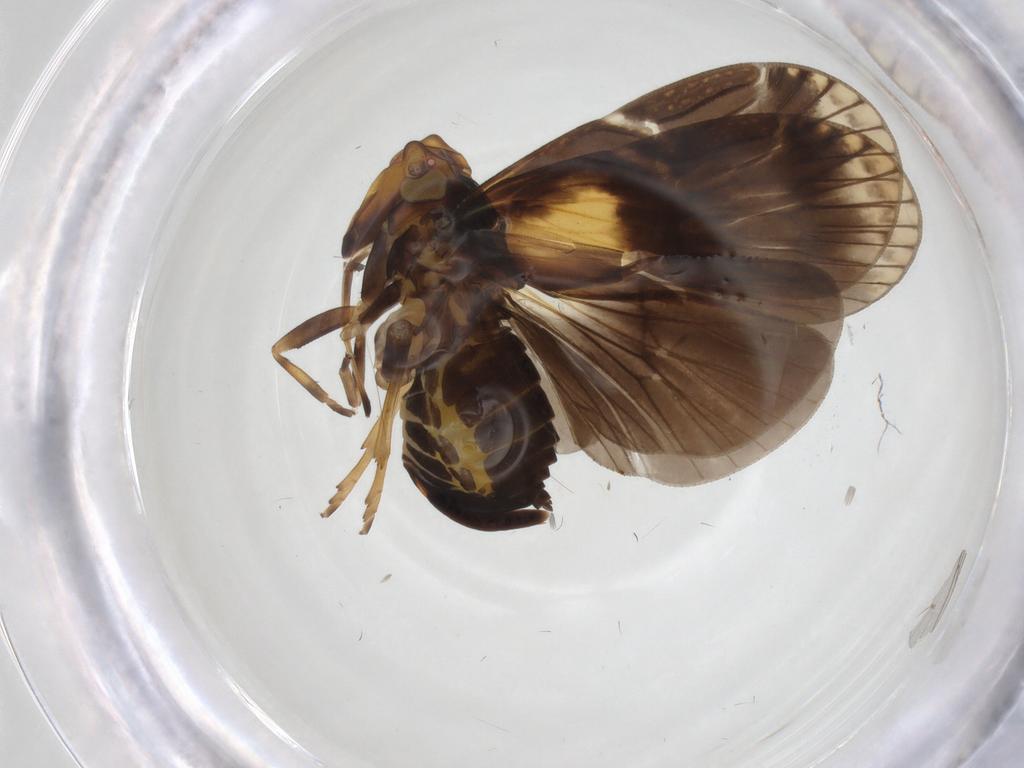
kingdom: Animalia
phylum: Arthropoda
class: Insecta
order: Hemiptera
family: Cixiidae
